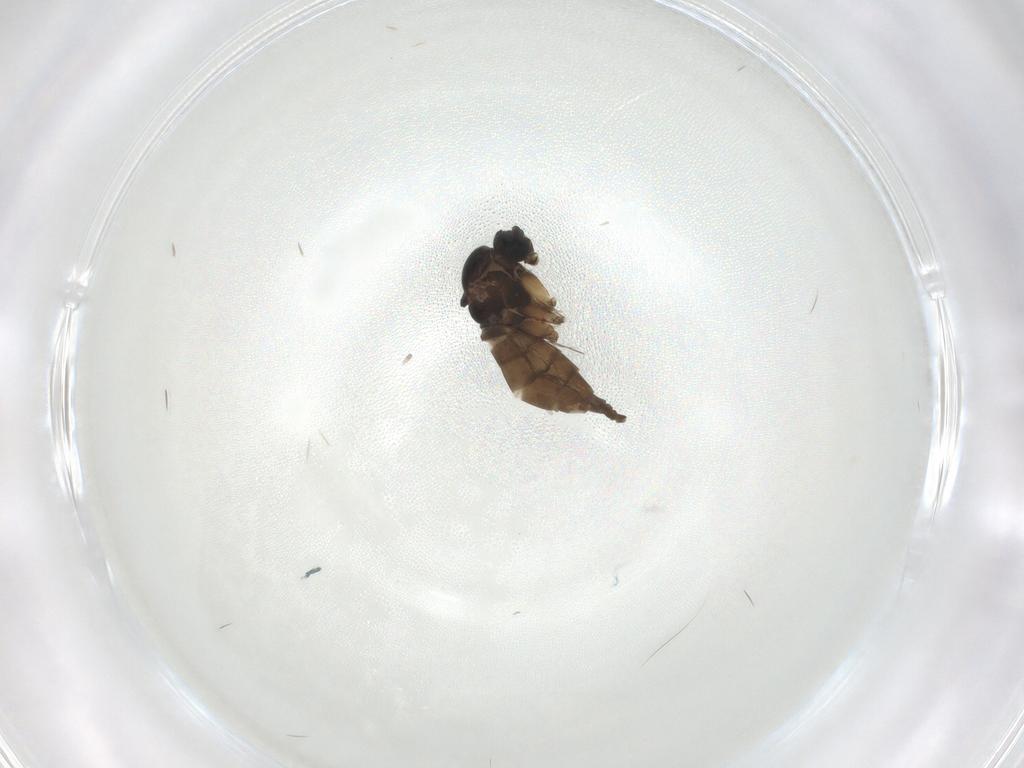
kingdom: Animalia
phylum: Arthropoda
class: Insecta
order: Diptera
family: Sciaridae
